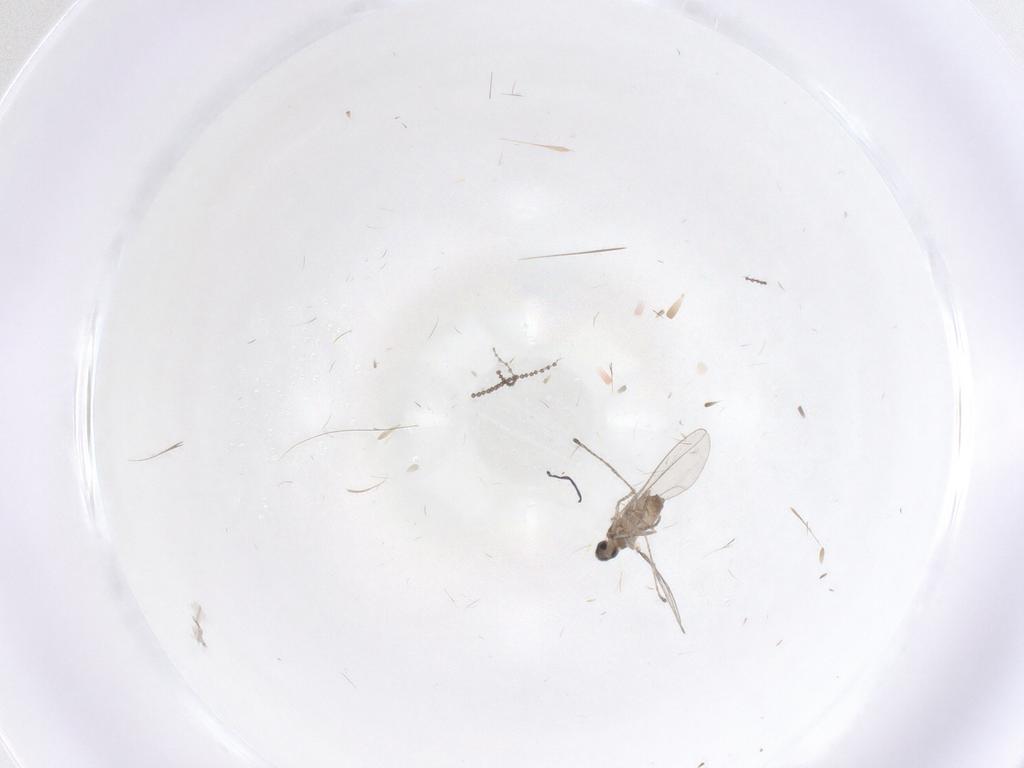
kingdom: Animalia
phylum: Arthropoda
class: Insecta
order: Diptera
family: Cecidomyiidae
